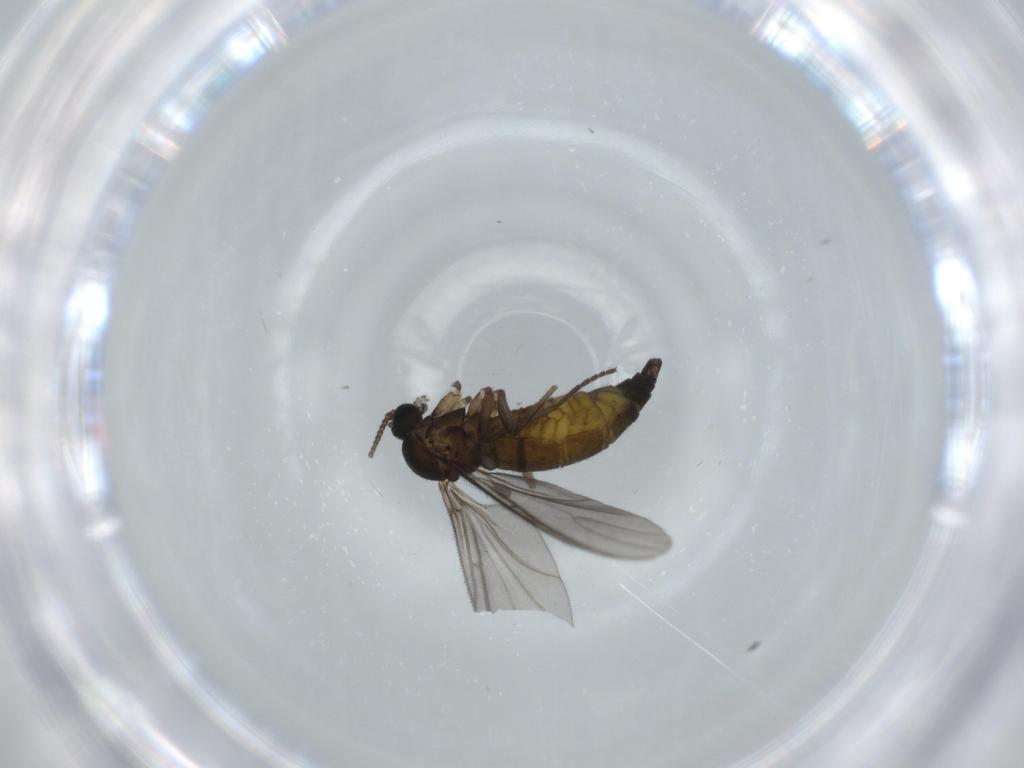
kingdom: Animalia
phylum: Arthropoda
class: Insecta
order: Diptera
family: Sciaridae
